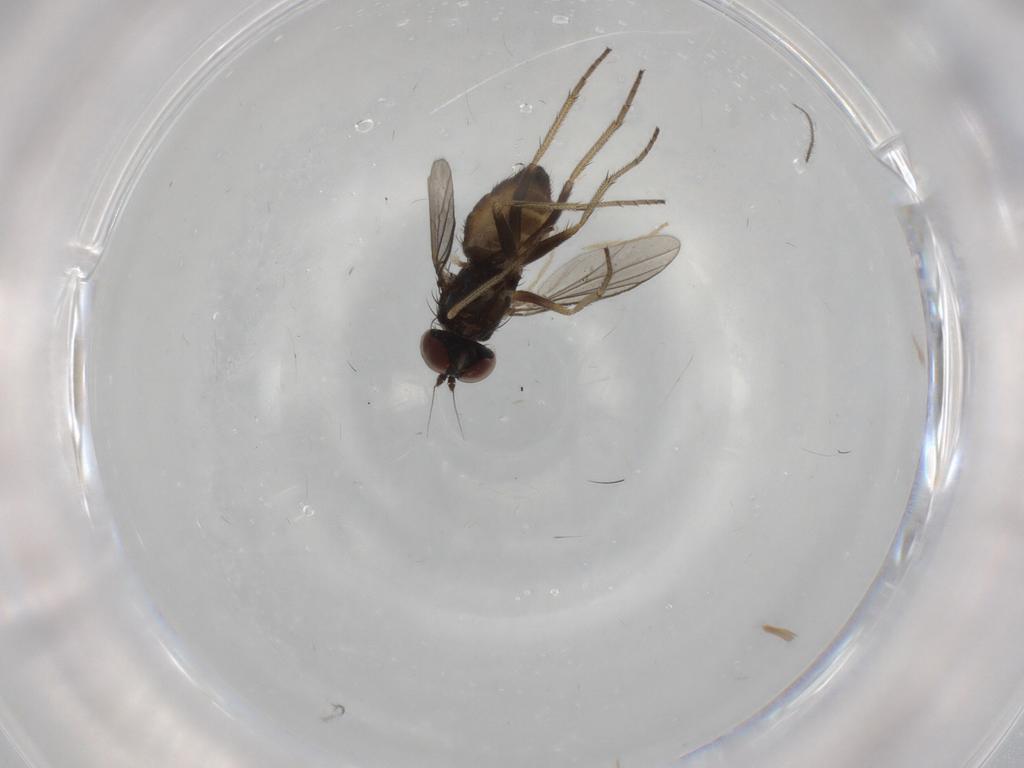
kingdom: Animalia
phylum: Arthropoda
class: Insecta
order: Diptera
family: Cecidomyiidae
